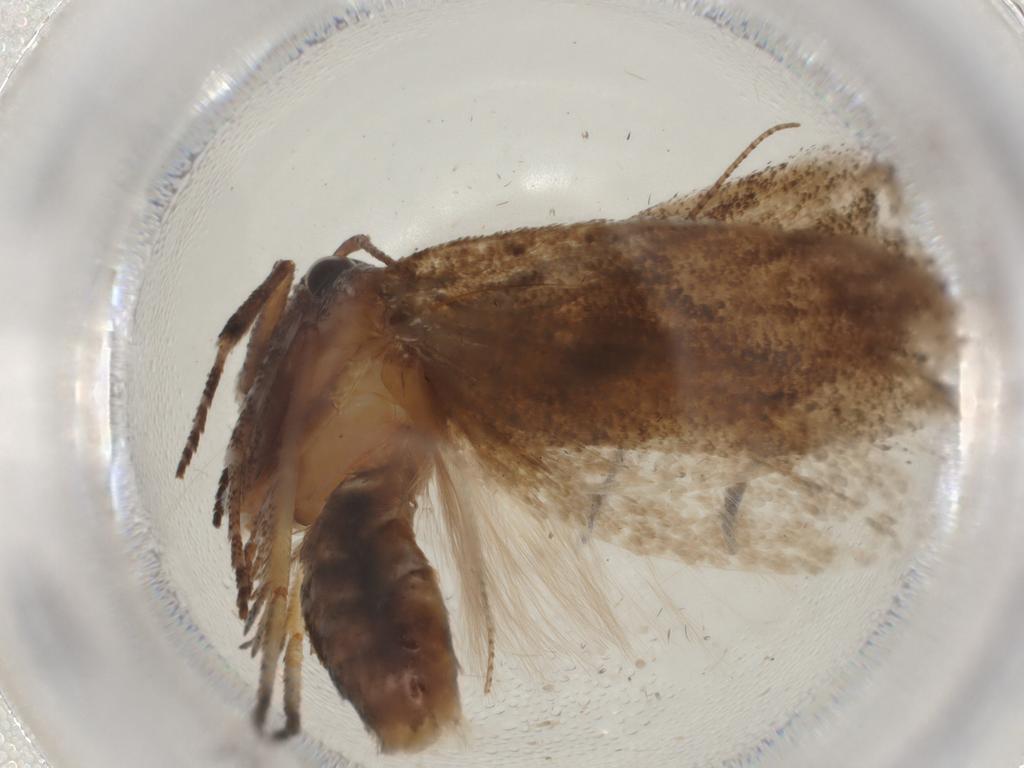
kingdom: Animalia
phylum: Arthropoda
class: Insecta
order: Lepidoptera
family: Cosmopterigidae
